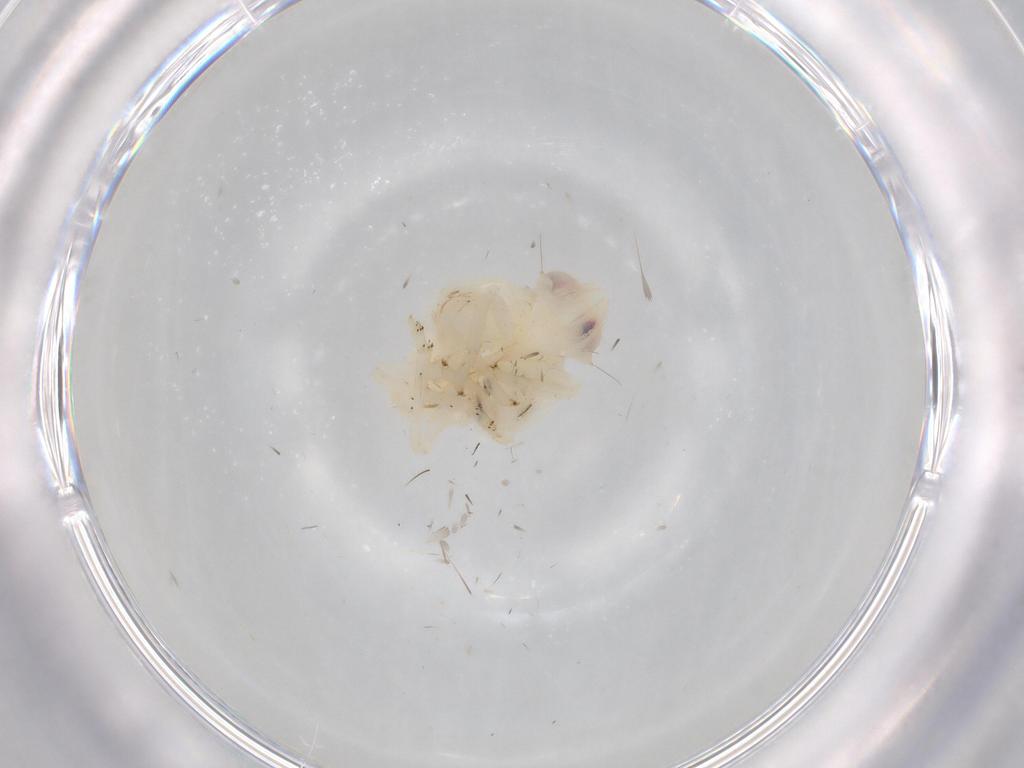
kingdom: Animalia
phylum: Arthropoda
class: Insecta
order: Hemiptera
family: Nogodinidae
